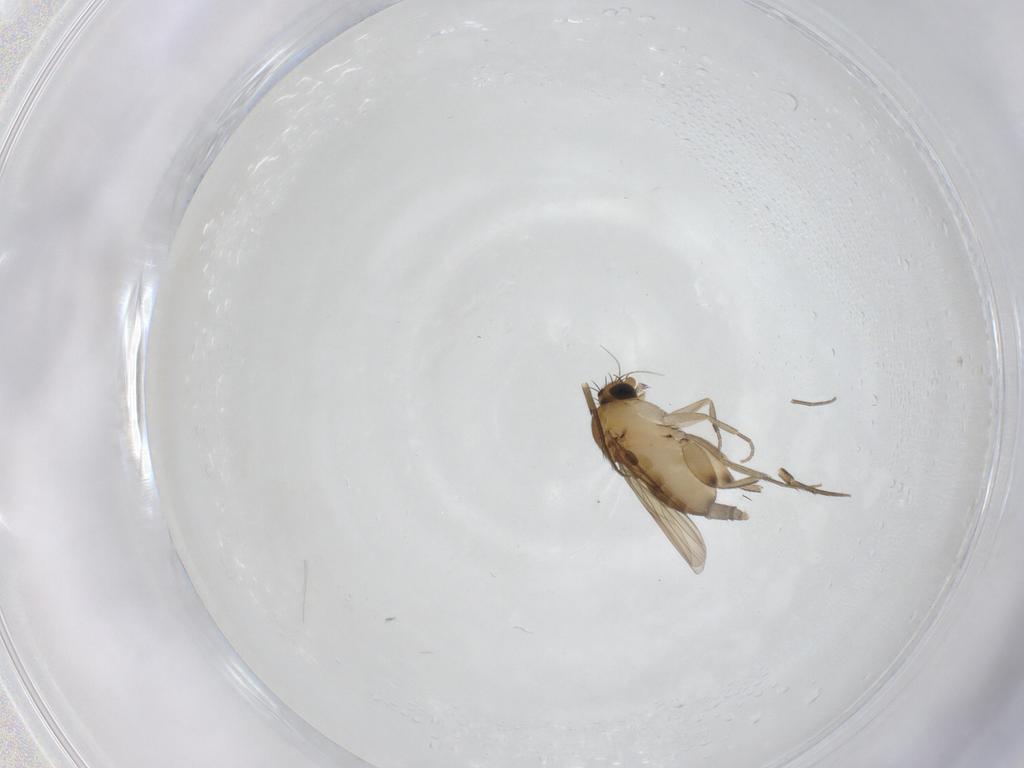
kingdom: Animalia
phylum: Arthropoda
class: Insecta
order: Diptera
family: Phoridae
